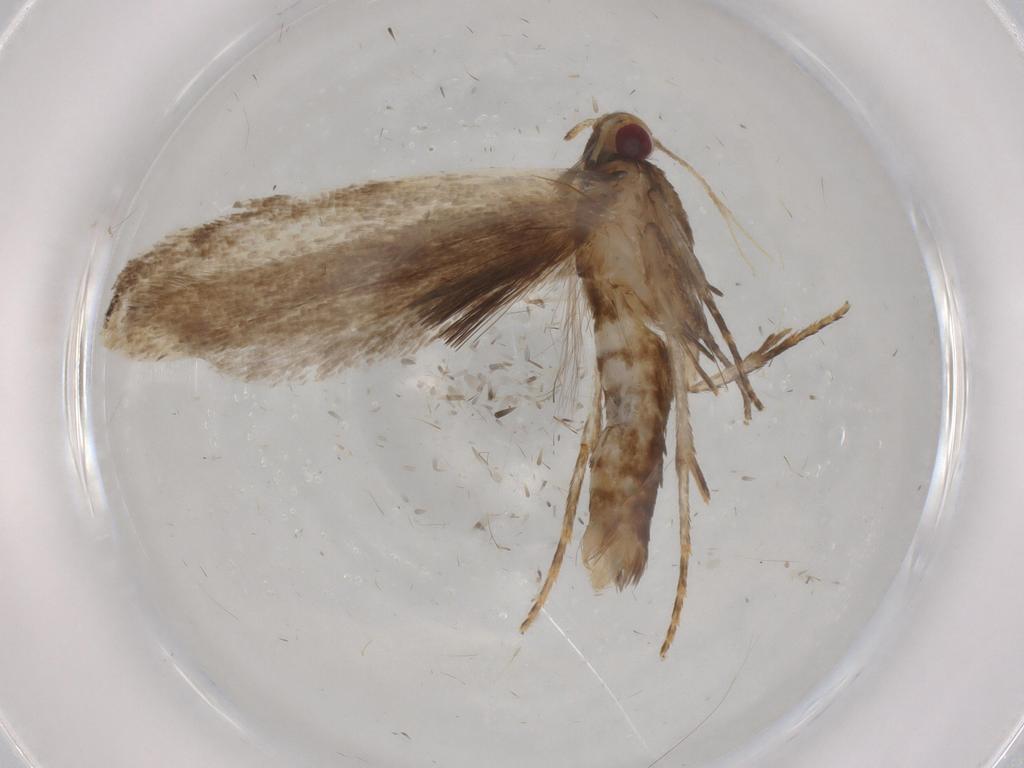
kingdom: Animalia
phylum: Arthropoda
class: Insecta
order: Lepidoptera
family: Gelechiidae
